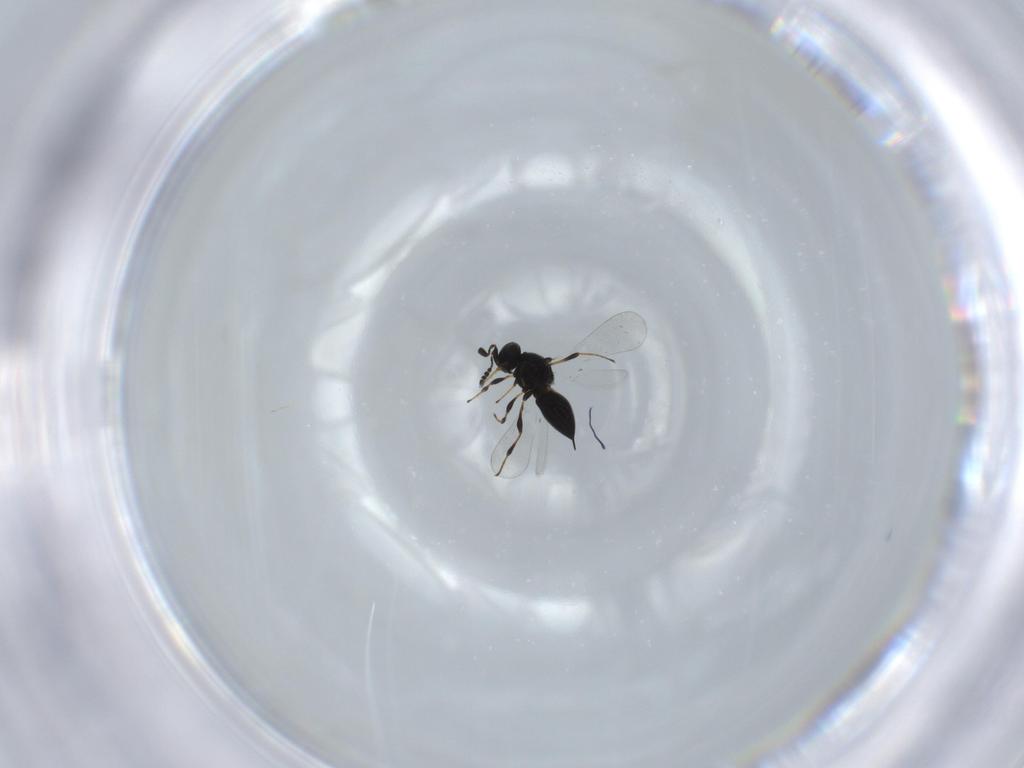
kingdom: Animalia
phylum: Arthropoda
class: Insecta
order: Hymenoptera
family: Platygastridae
